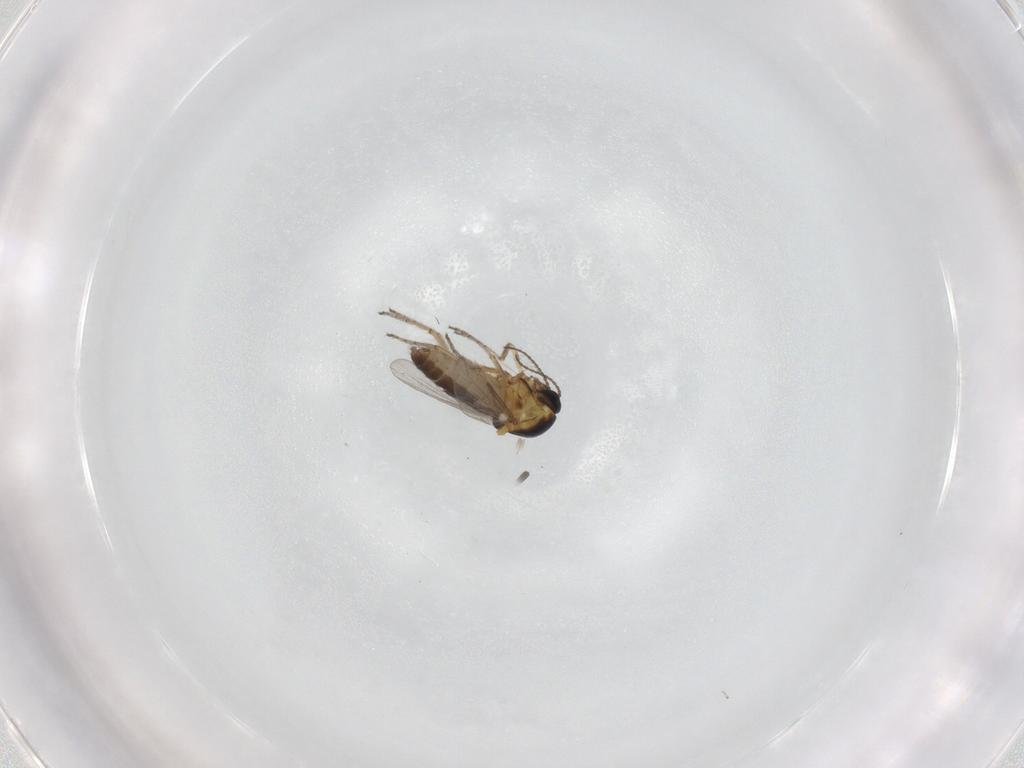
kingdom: Animalia
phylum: Arthropoda
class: Insecta
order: Diptera
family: Ceratopogonidae
